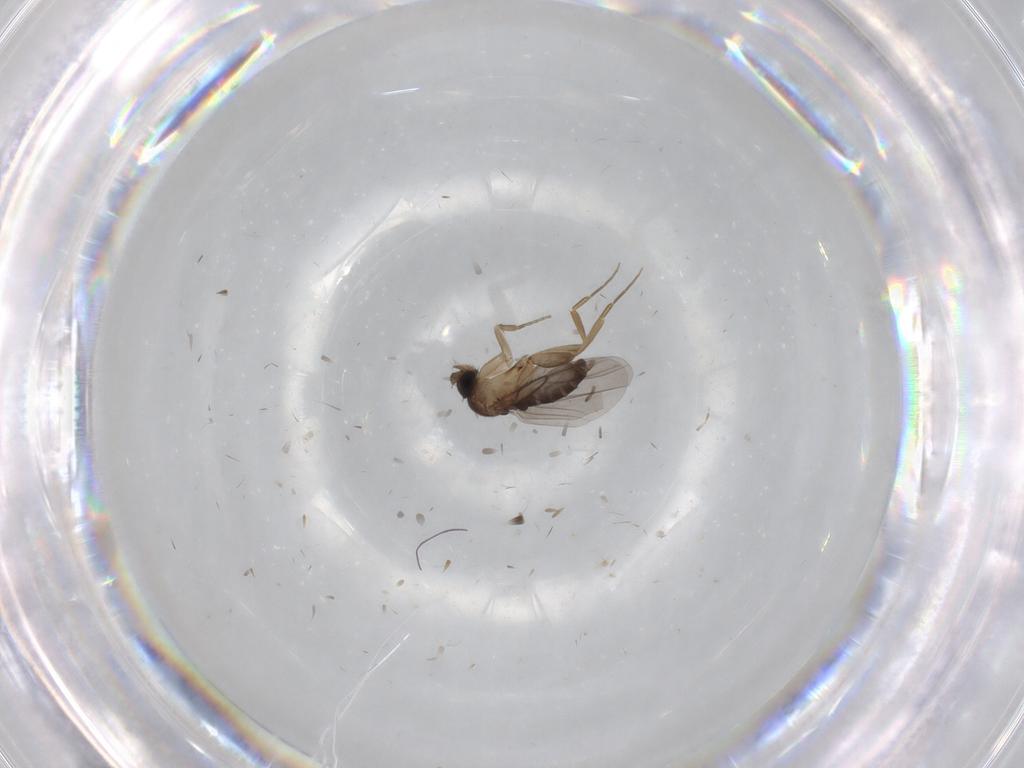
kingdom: Animalia
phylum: Arthropoda
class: Insecta
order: Diptera
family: Phoridae
